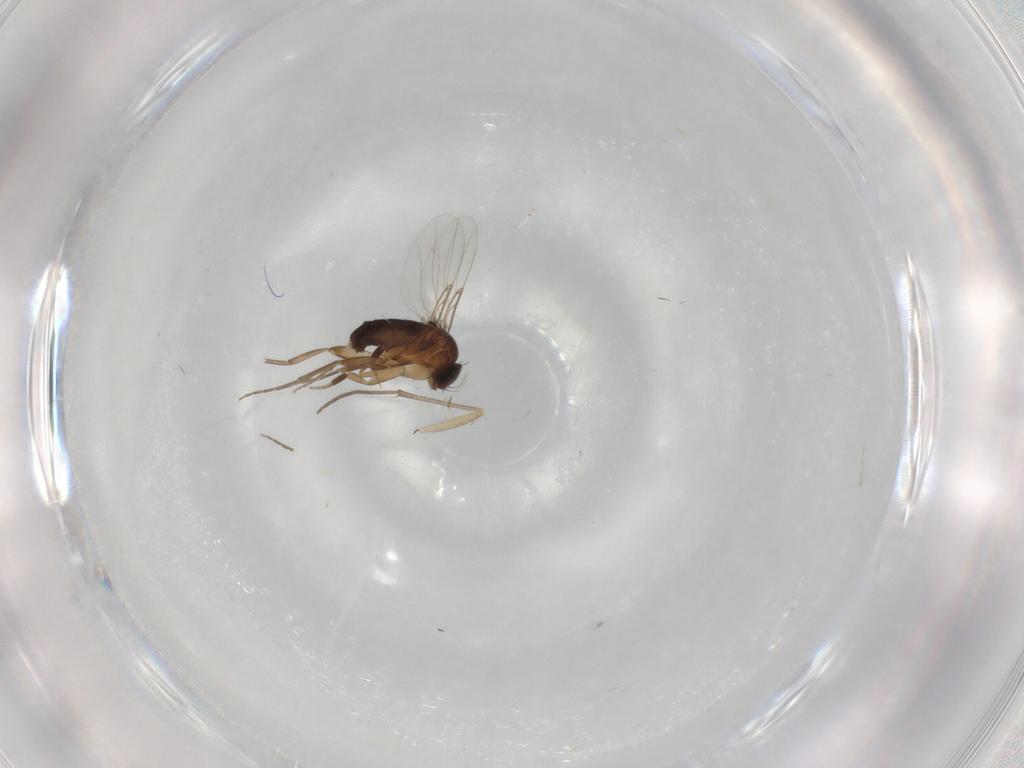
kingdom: Animalia
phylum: Arthropoda
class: Insecta
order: Diptera
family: Phoridae
